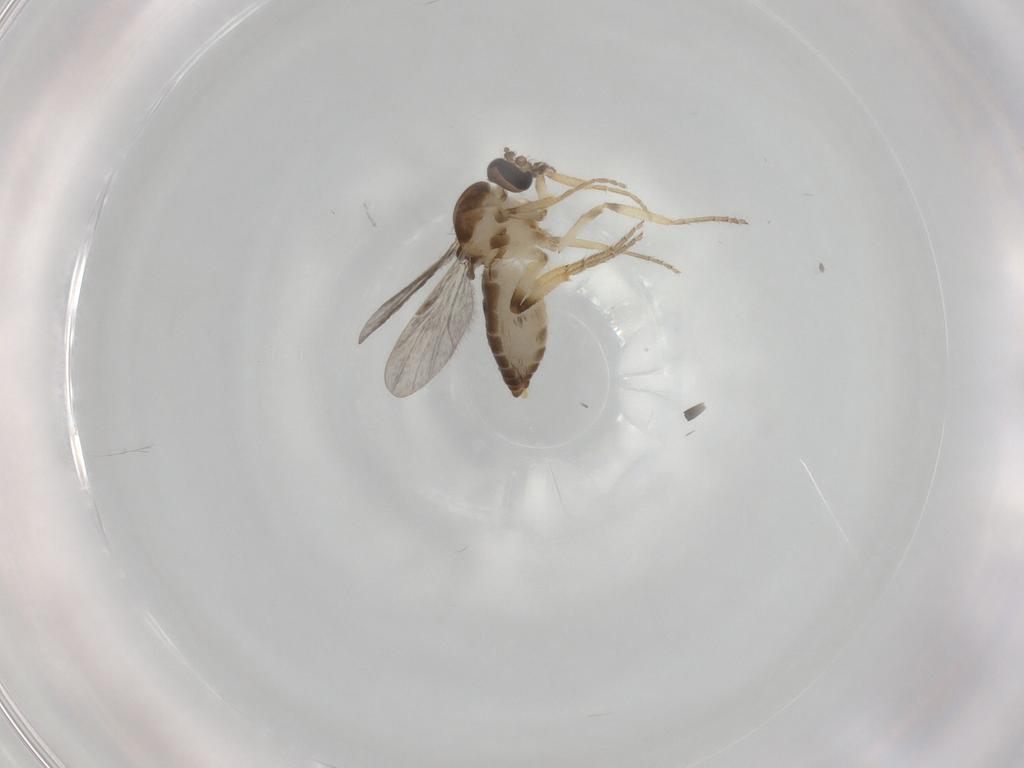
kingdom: Animalia
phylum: Arthropoda
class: Insecta
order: Diptera
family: Ceratopogonidae
